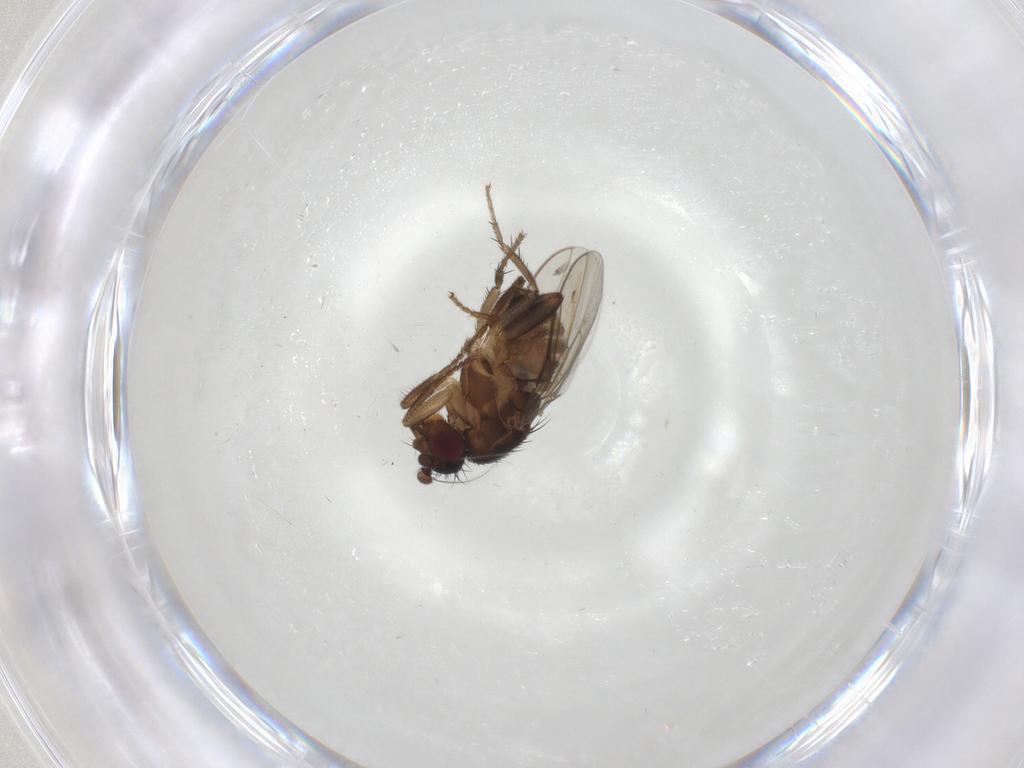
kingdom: Animalia
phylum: Arthropoda
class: Insecta
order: Diptera
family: Sphaeroceridae
